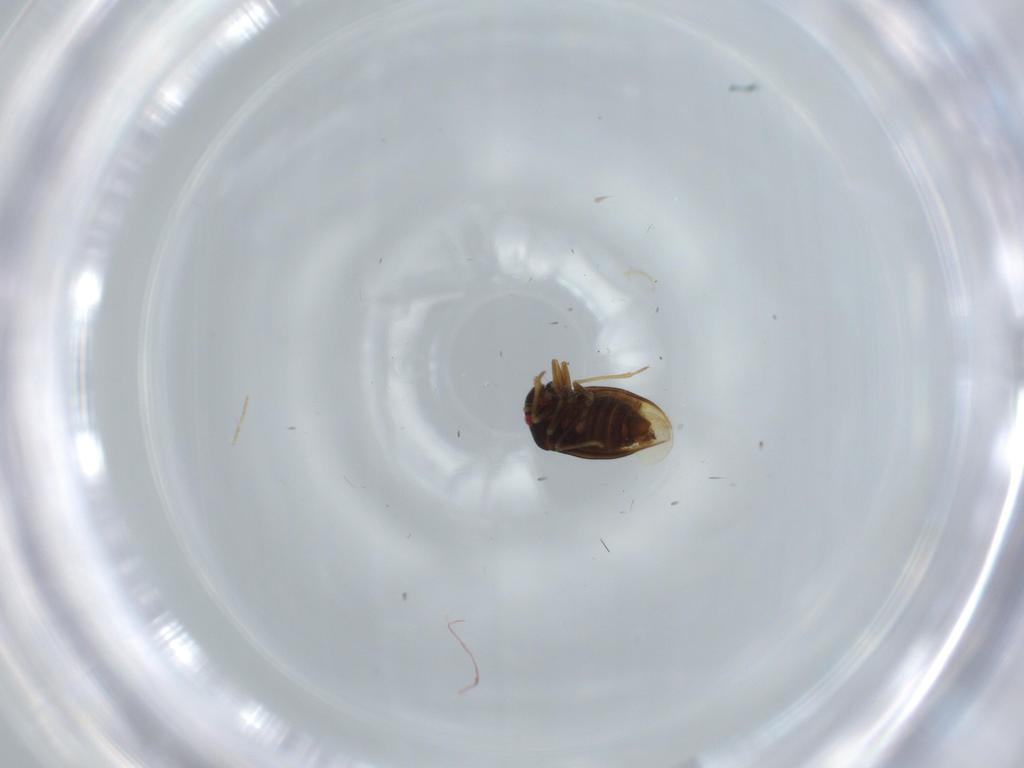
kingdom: Animalia
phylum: Arthropoda
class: Insecta
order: Hemiptera
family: Schizopteridae
